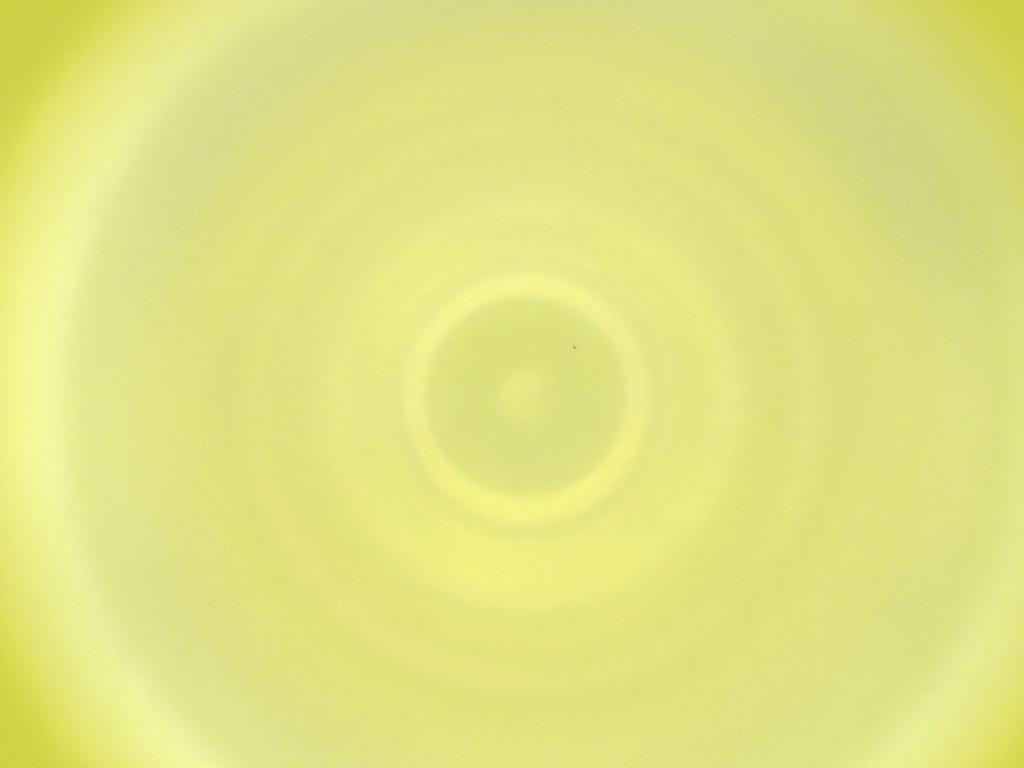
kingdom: Animalia
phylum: Arthropoda
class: Insecta
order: Diptera
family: Cecidomyiidae
